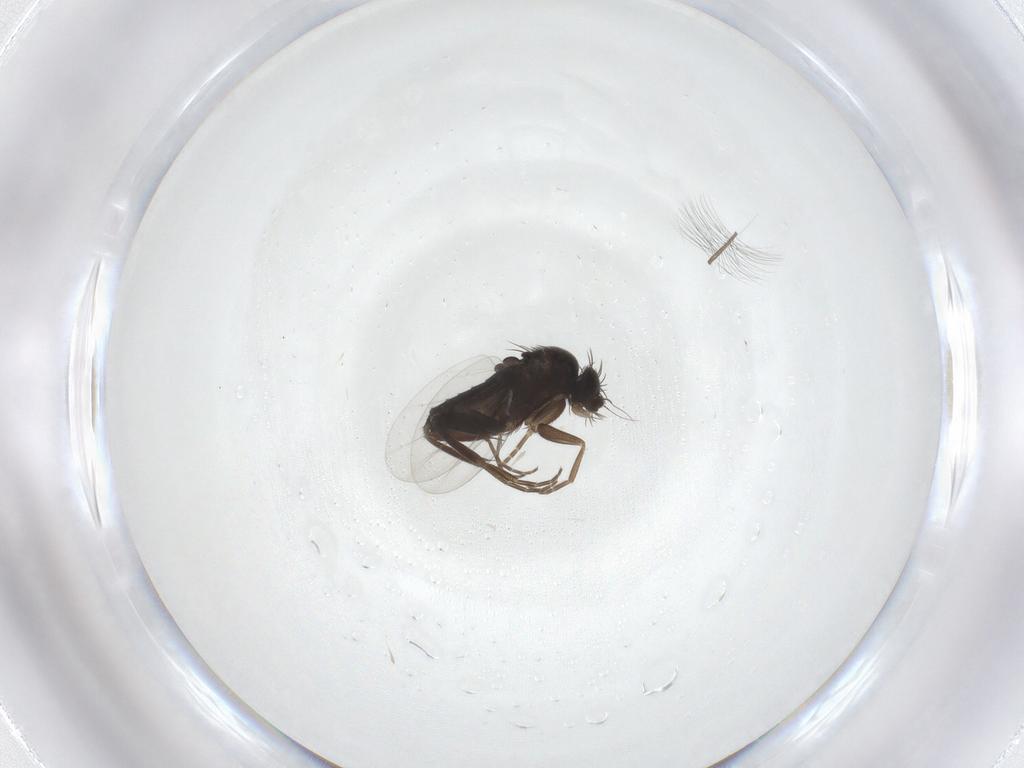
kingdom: Animalia
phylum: Arthropoda
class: Insecta
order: Diptera
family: Phoridae
